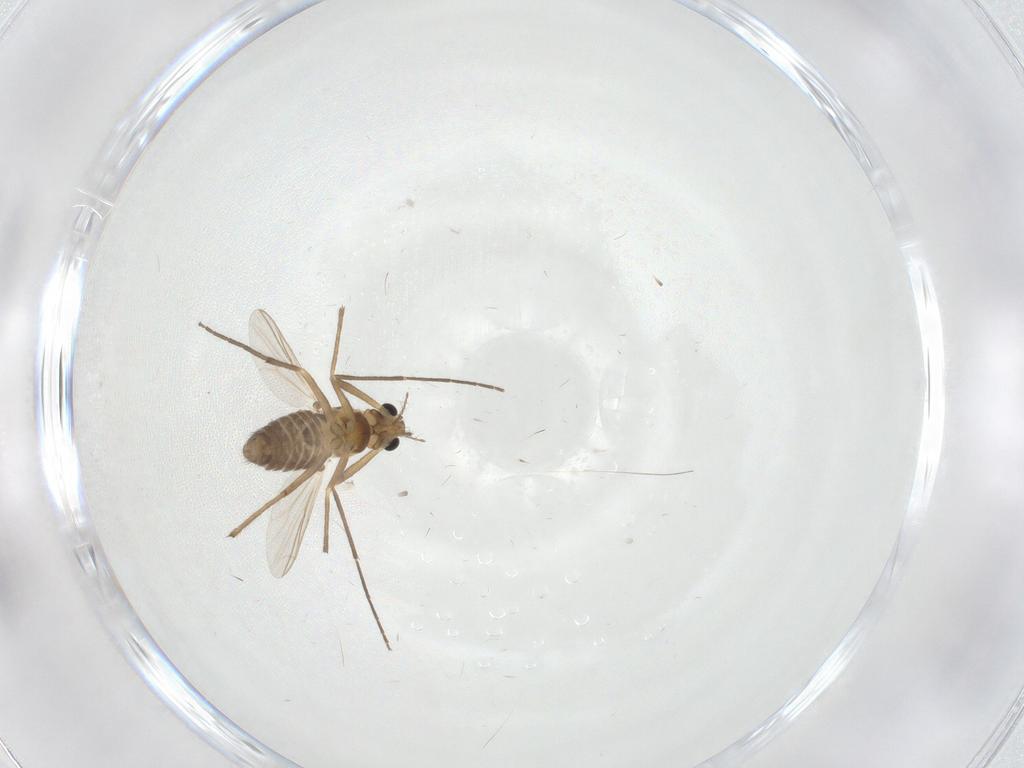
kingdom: Animalia
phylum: Arthropoda
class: Insecta
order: Diptera
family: Chironomidae
